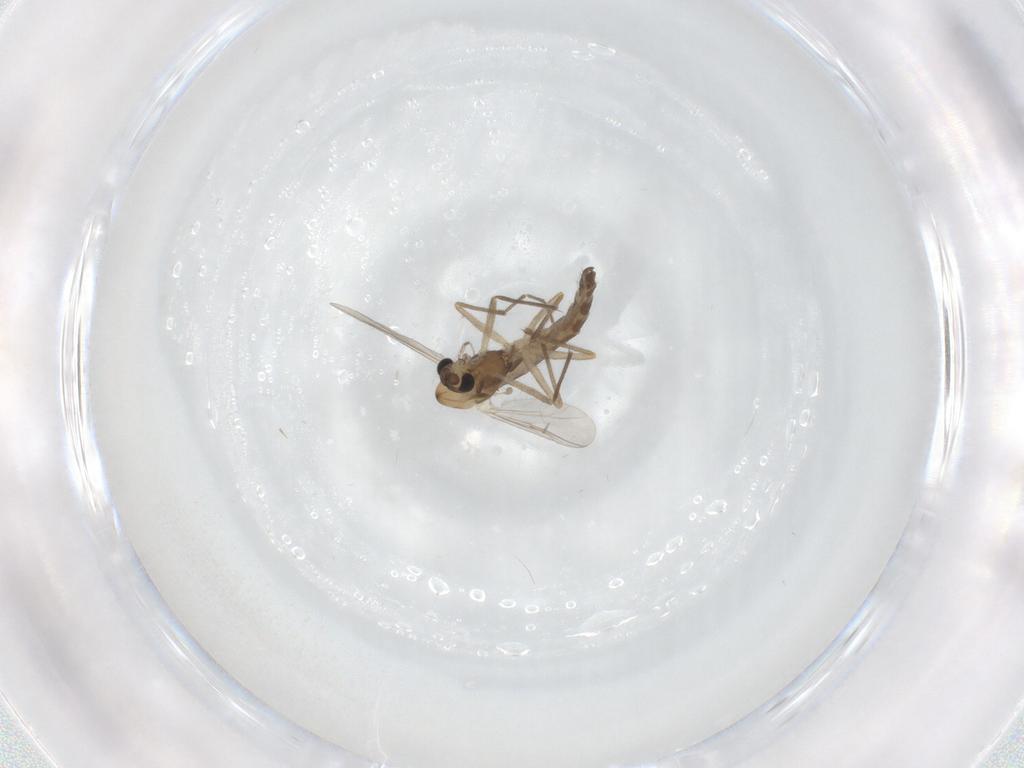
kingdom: Animalia
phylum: Arthropoda
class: Insecta
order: Diptera
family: Chironomidae
